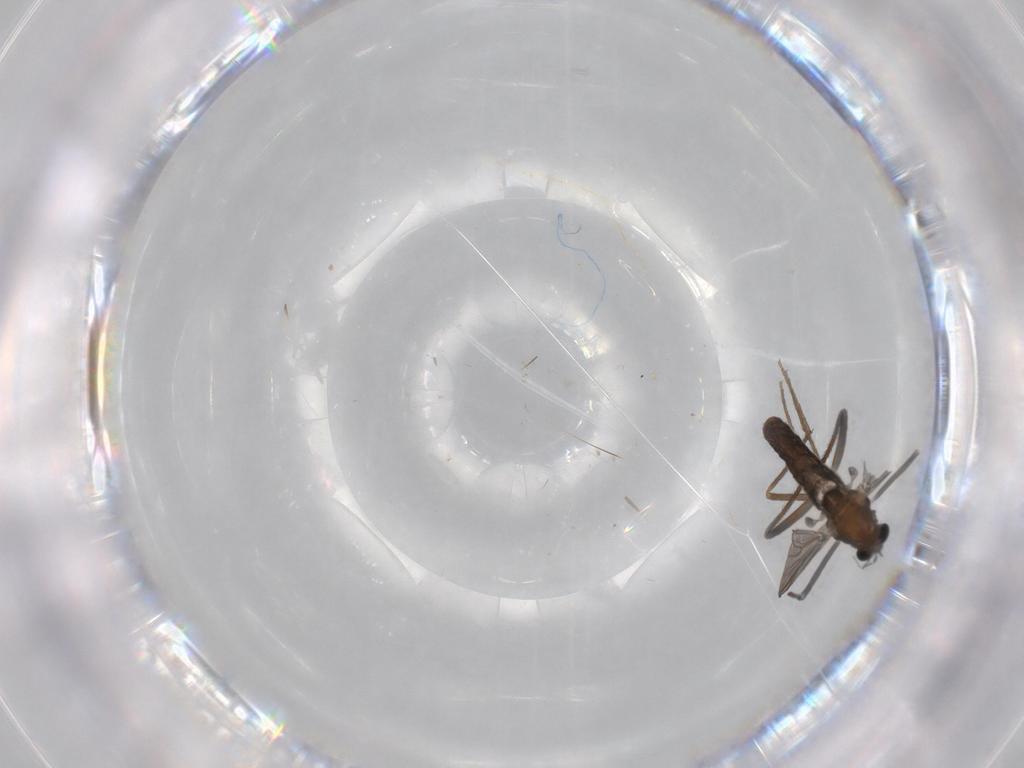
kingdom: Animalia
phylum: Arthropoda
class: Insecta
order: Diptera
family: Chironomidae
